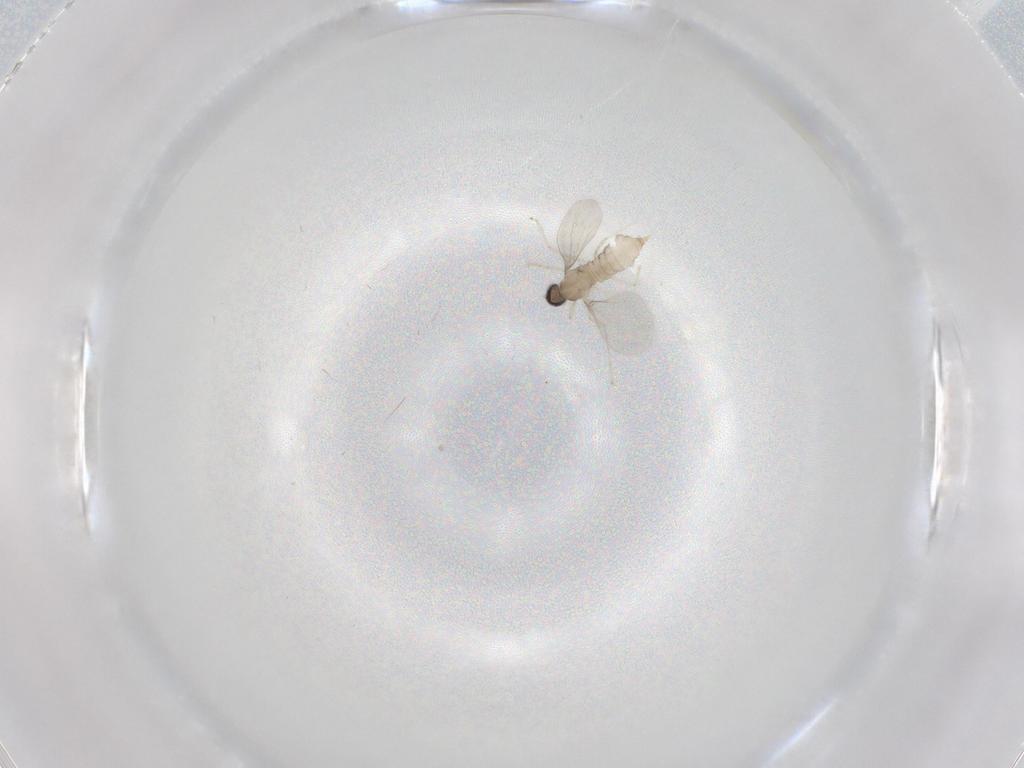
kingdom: Animalia
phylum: Arthropoda
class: Insecta
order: Diptera
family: Cecidomyiidae
